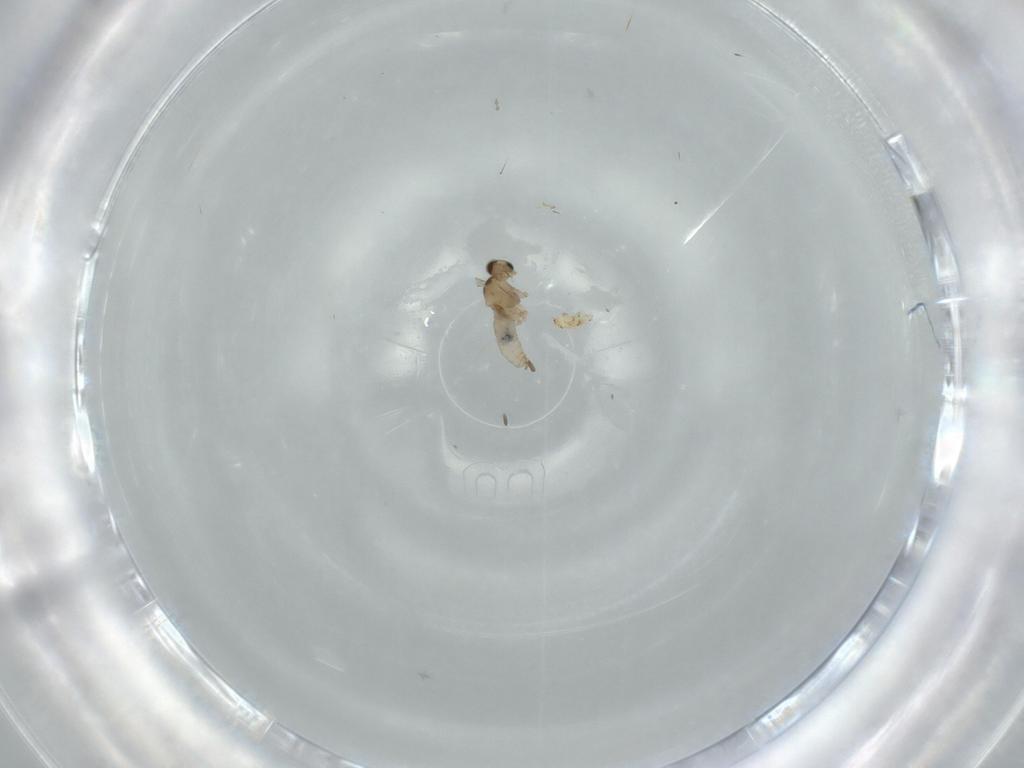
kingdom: Animalia
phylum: Arthropoda
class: Insecta
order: Diptera
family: Cecidomyiidae
